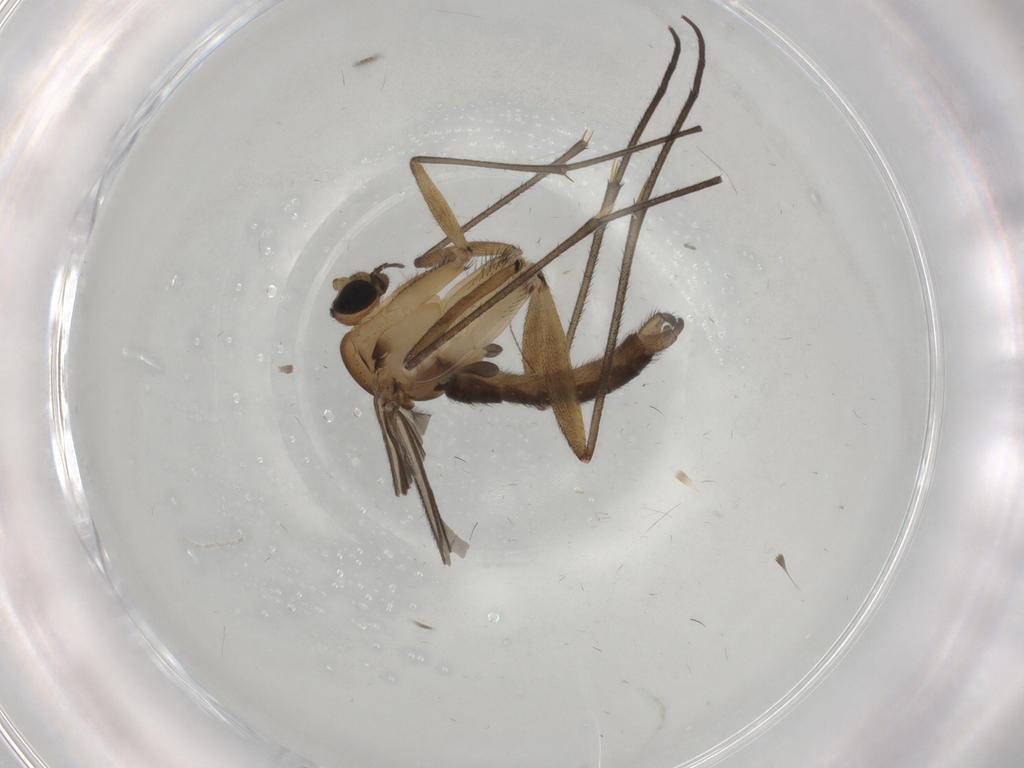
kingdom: Animalia
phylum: Arthropoda
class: Insecta
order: Diptera
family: Sciaridae
